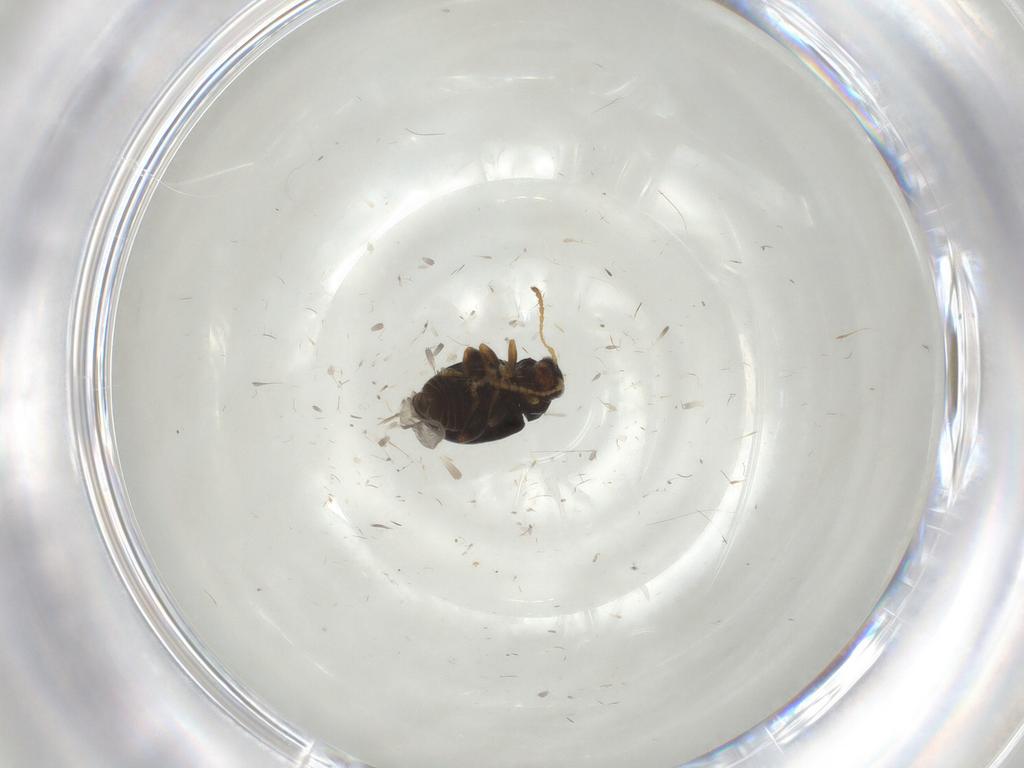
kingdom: Animalia
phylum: Arthropoda
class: Insecta
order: Coleoptera
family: Chrysomelidae
